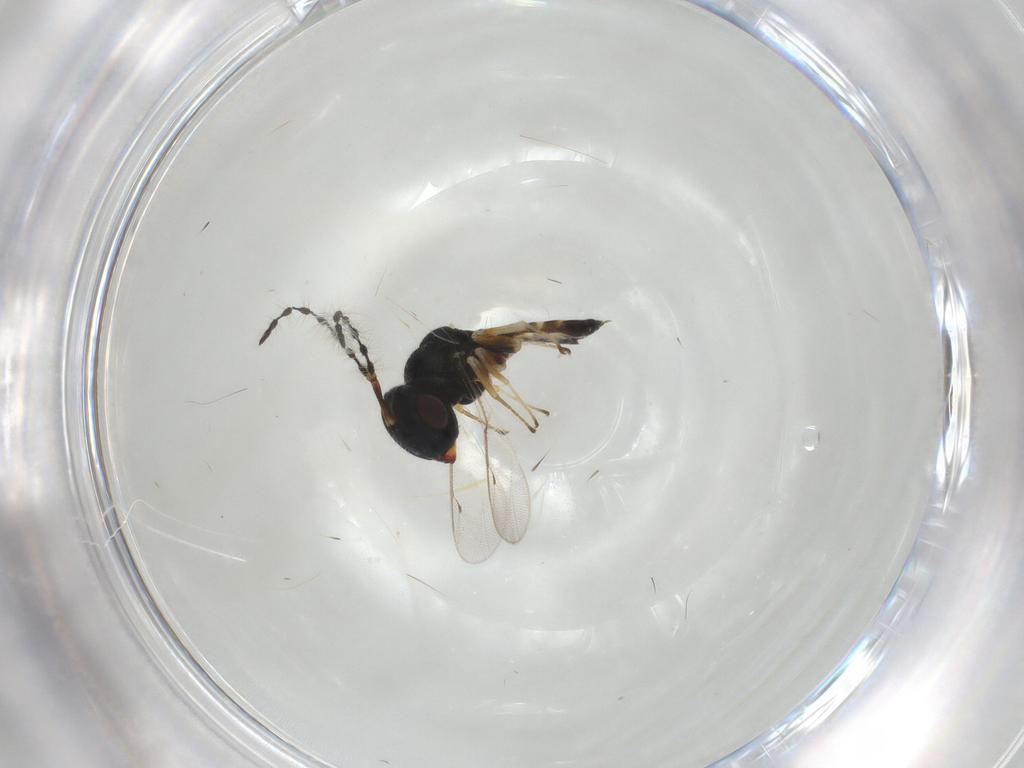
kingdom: Animalia
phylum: Arthropoda
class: Insecta
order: Hymenoptera
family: Pteromalidae
